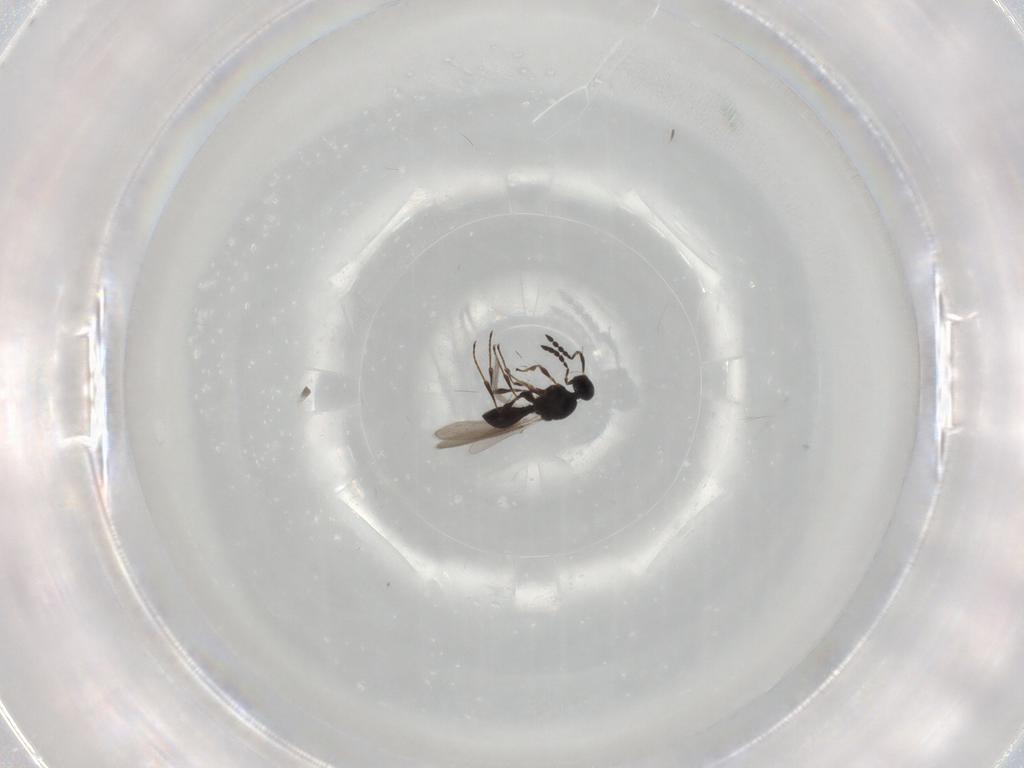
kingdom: Animalia
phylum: Arthropoda
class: Insecta
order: Hymenoptera
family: Platygastridae
